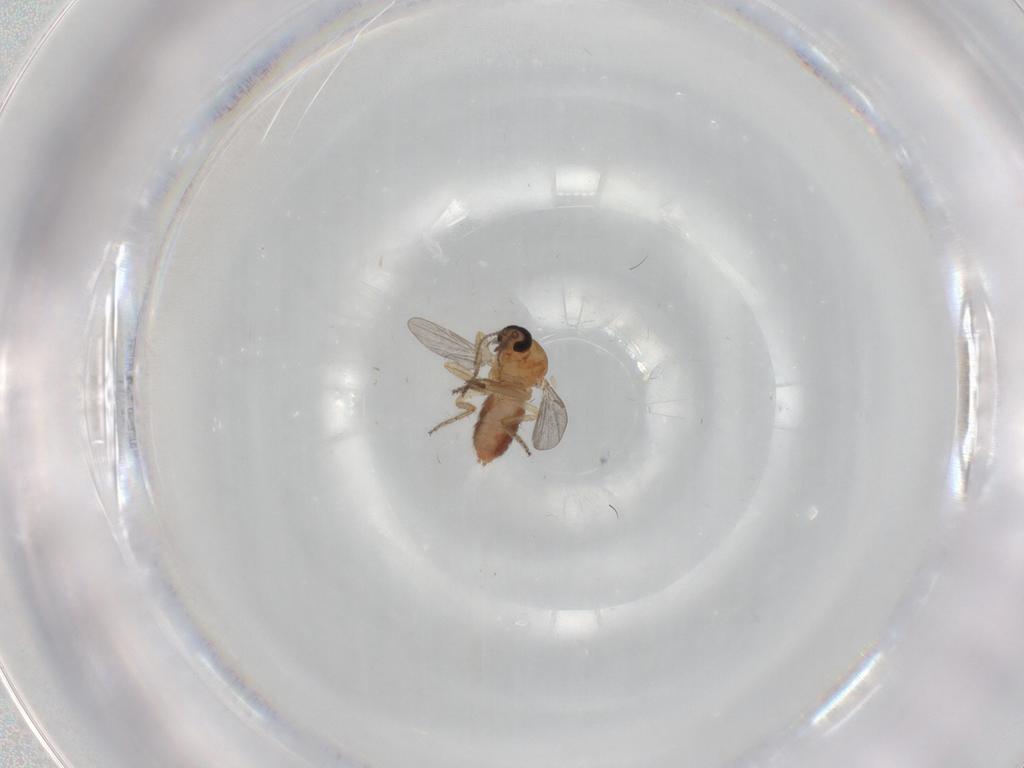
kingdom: Animalia
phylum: Arthropoda
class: Insecta
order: Diptera
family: Ceratopogonidae
